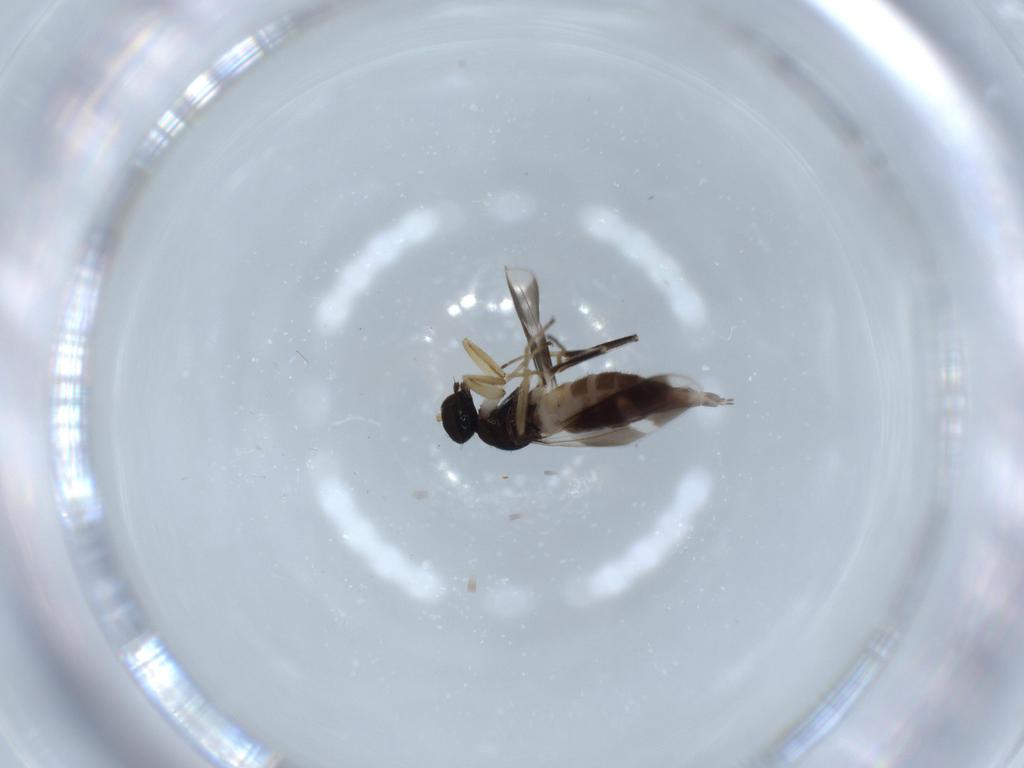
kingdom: Animalia
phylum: Arthropoda
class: Insecta
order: Diptera
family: Hybotidae
